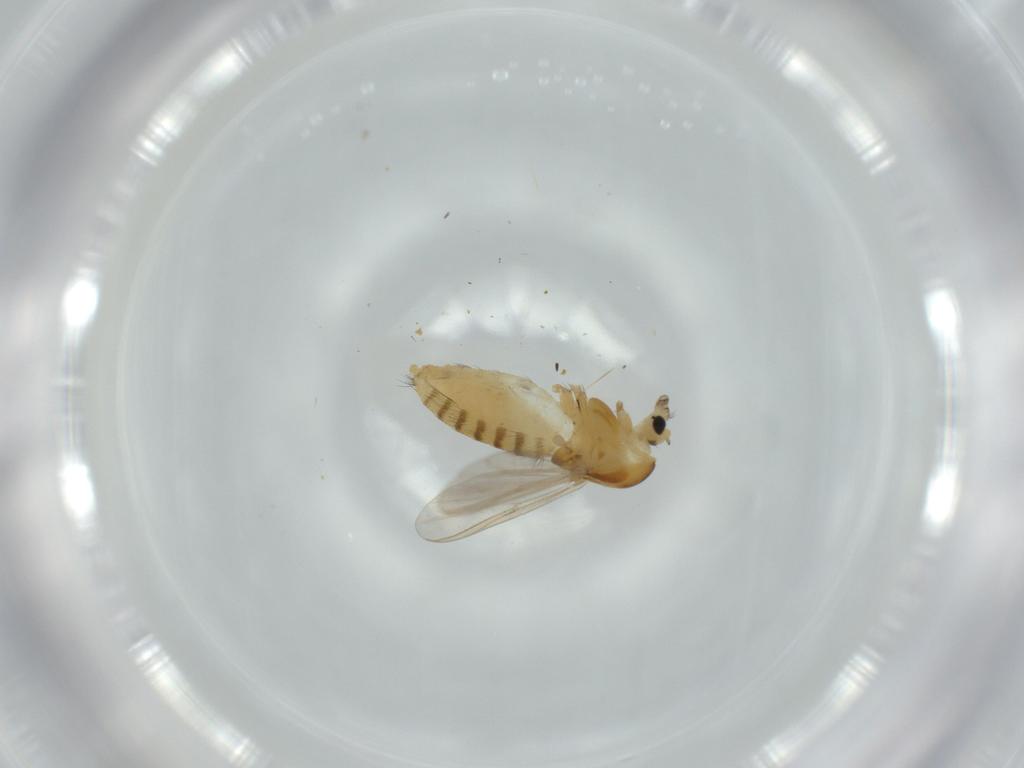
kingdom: Animalia
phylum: Arthropoda
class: Insecta
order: Diptera
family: Chironomidae
